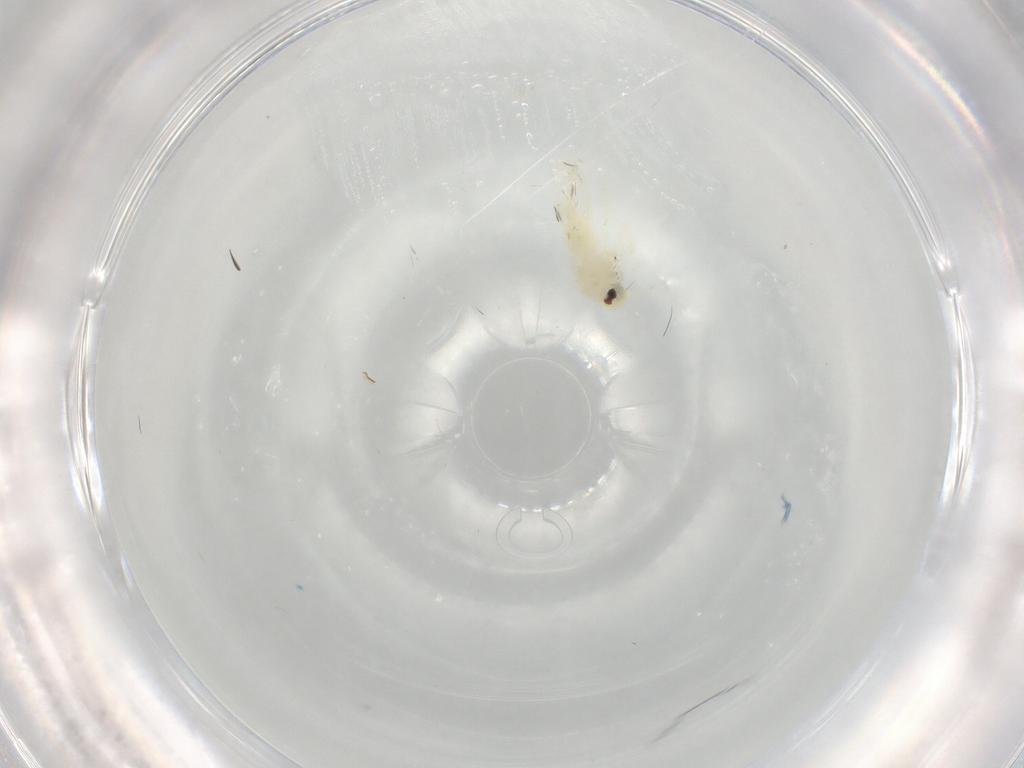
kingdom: Animalia
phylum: Arthropoda
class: Insecta
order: Hemiptera
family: Aleyrodidae
